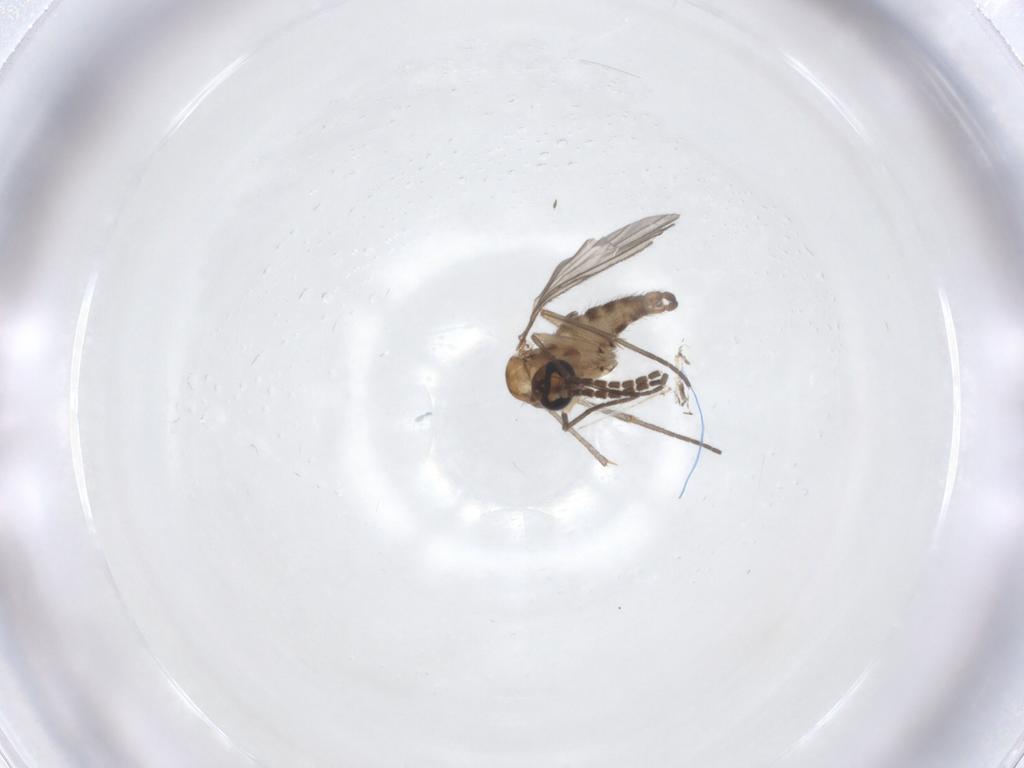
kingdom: Animalia
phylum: Arthropoda
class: Insecta
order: Diptera
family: Sciaridae
